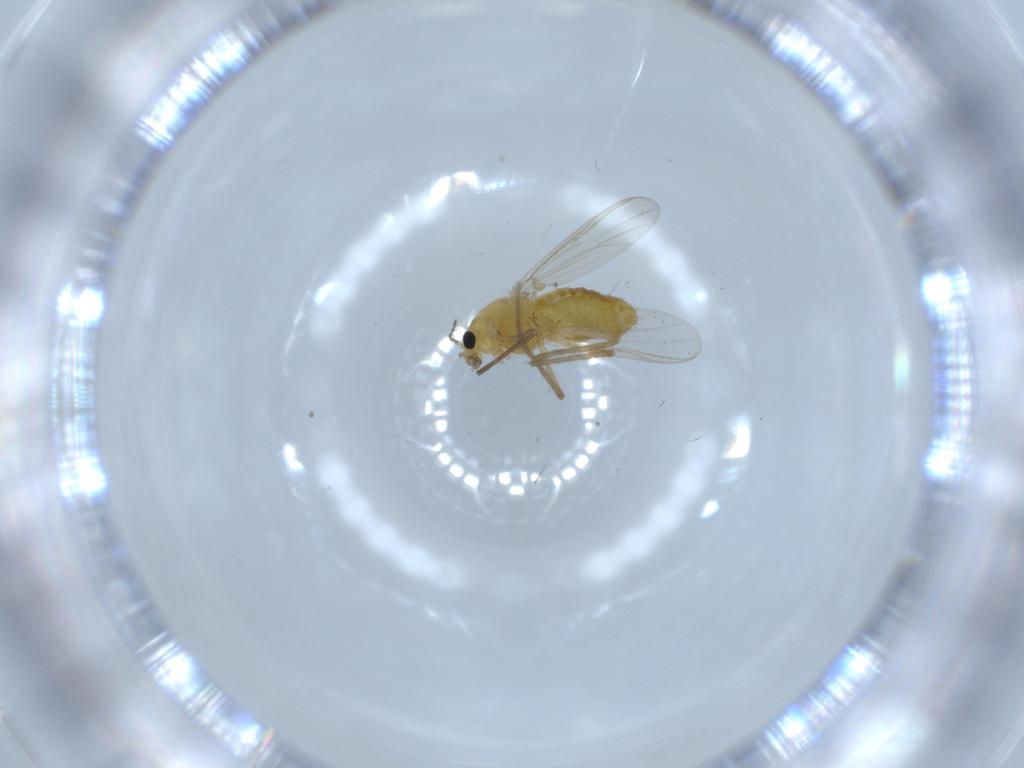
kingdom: Animalia
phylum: Arthropoda
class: Insecta
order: Diptera
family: Chironomidae
